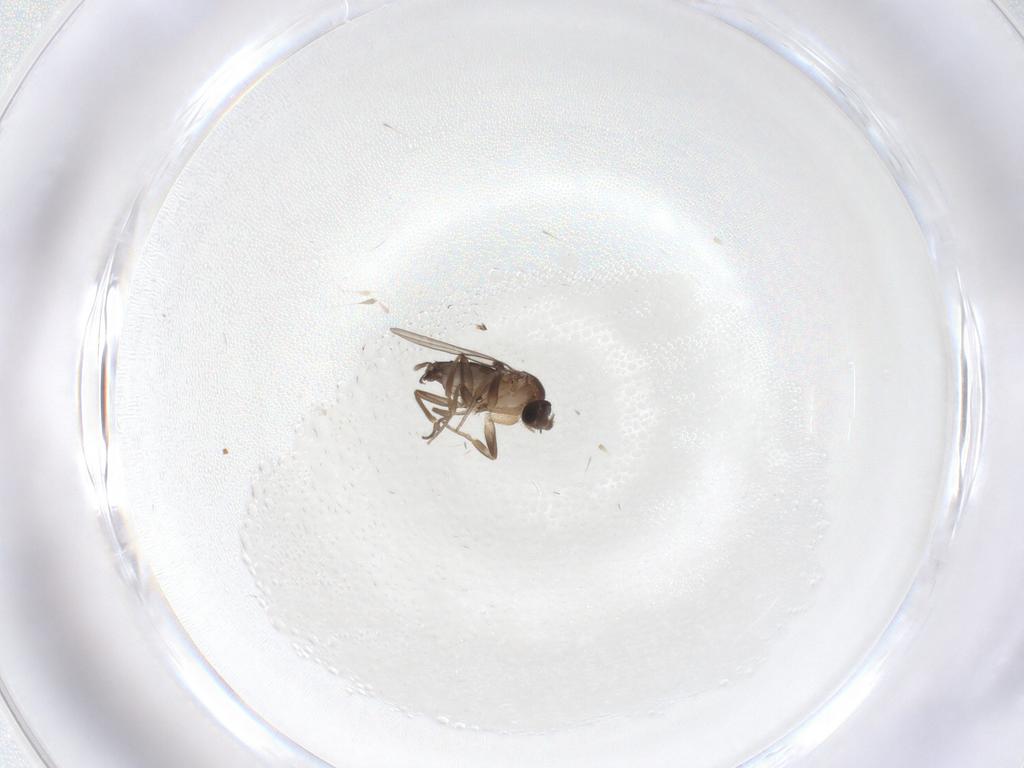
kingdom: Animalia
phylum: Arthropoda
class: Insecta
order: Diptera
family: Phoridae
